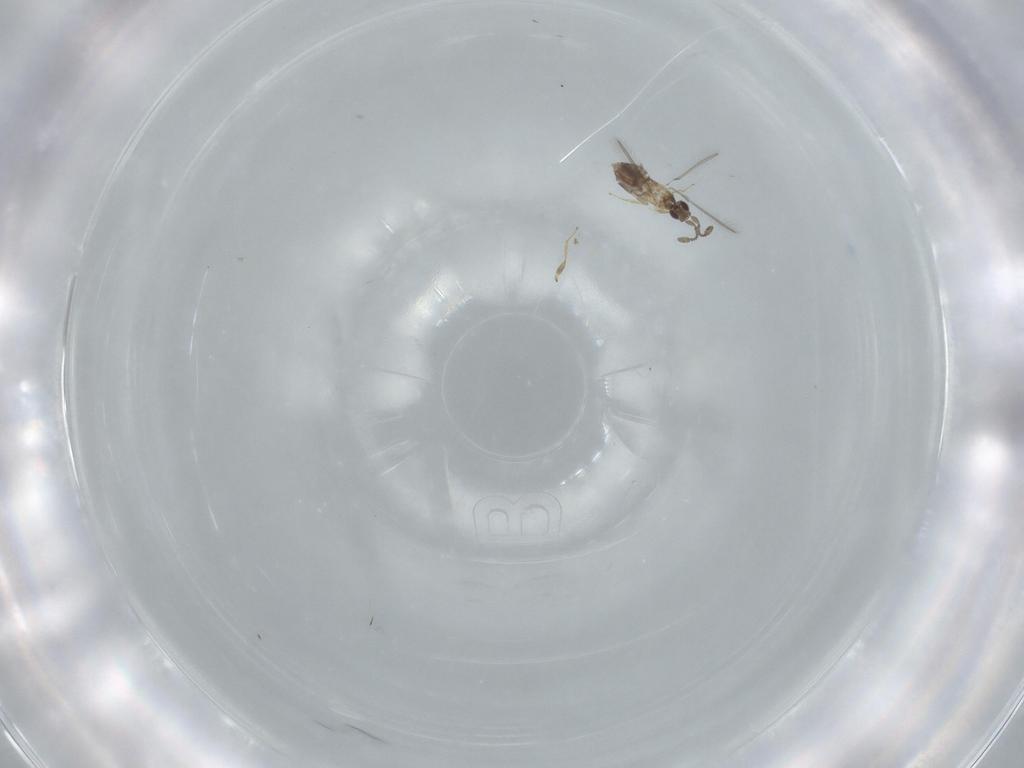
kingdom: Animalia
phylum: Arthropoda
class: Insecta
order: Hymenoptera
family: Mymaridae
